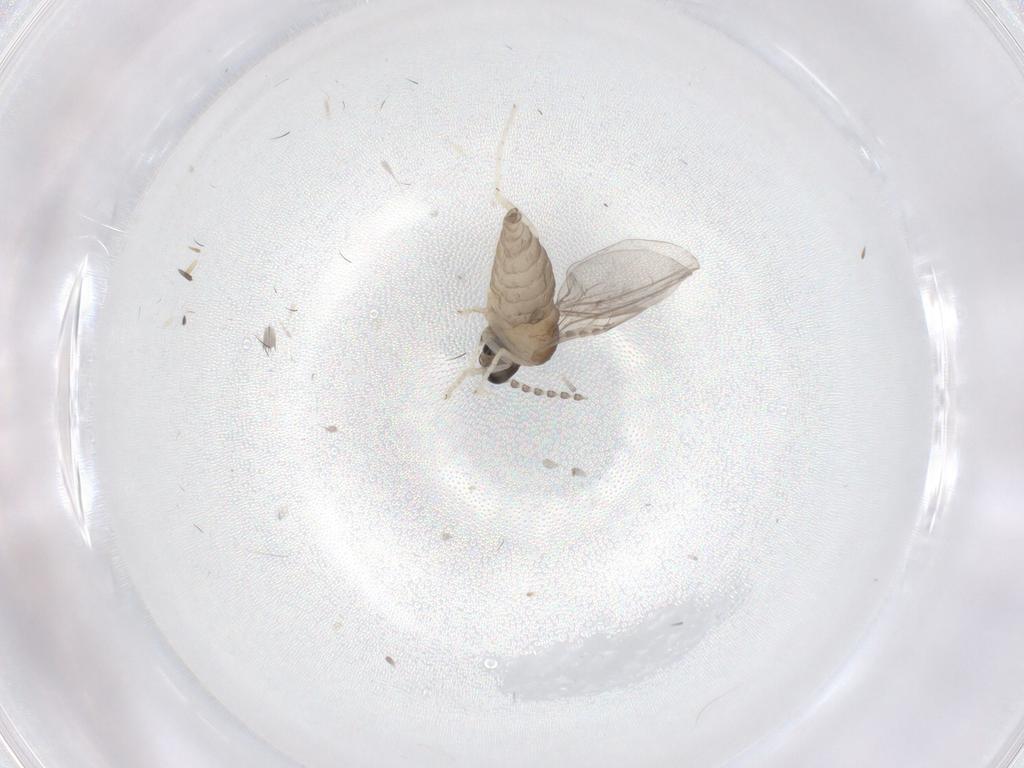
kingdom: Animalia
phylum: Arthropoda
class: Insecta
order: Diptera
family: Cecidomyiidae
